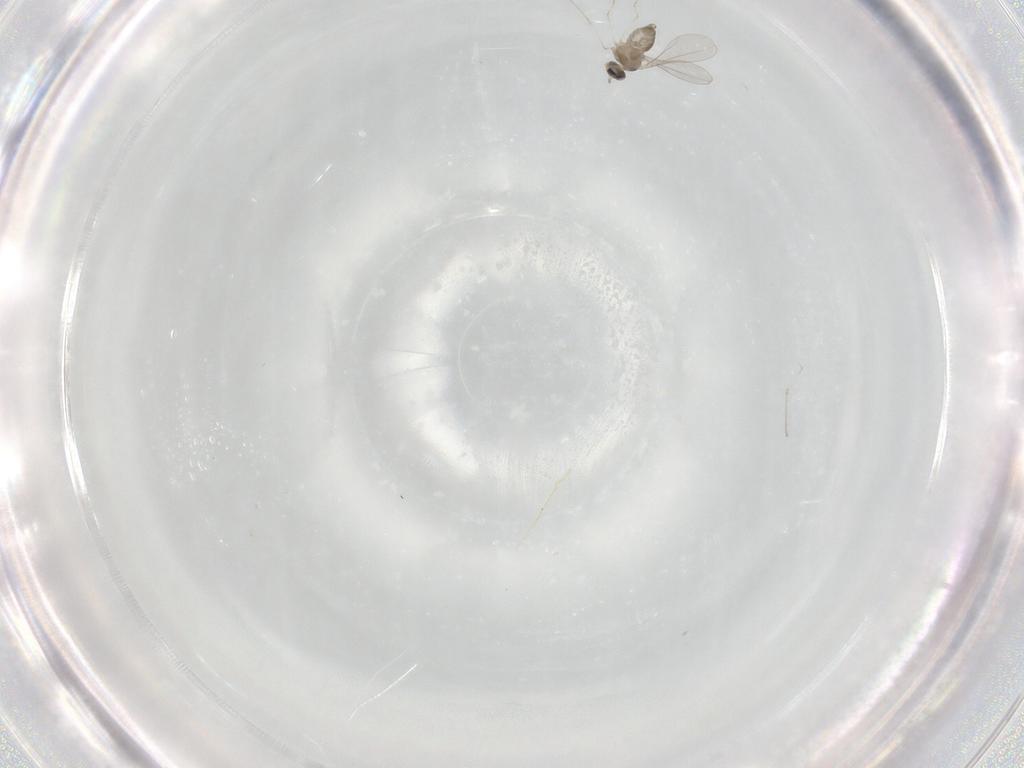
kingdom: Animalia
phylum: Arthropoda
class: Insecta
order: Diptera
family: Cecidomyiidae
